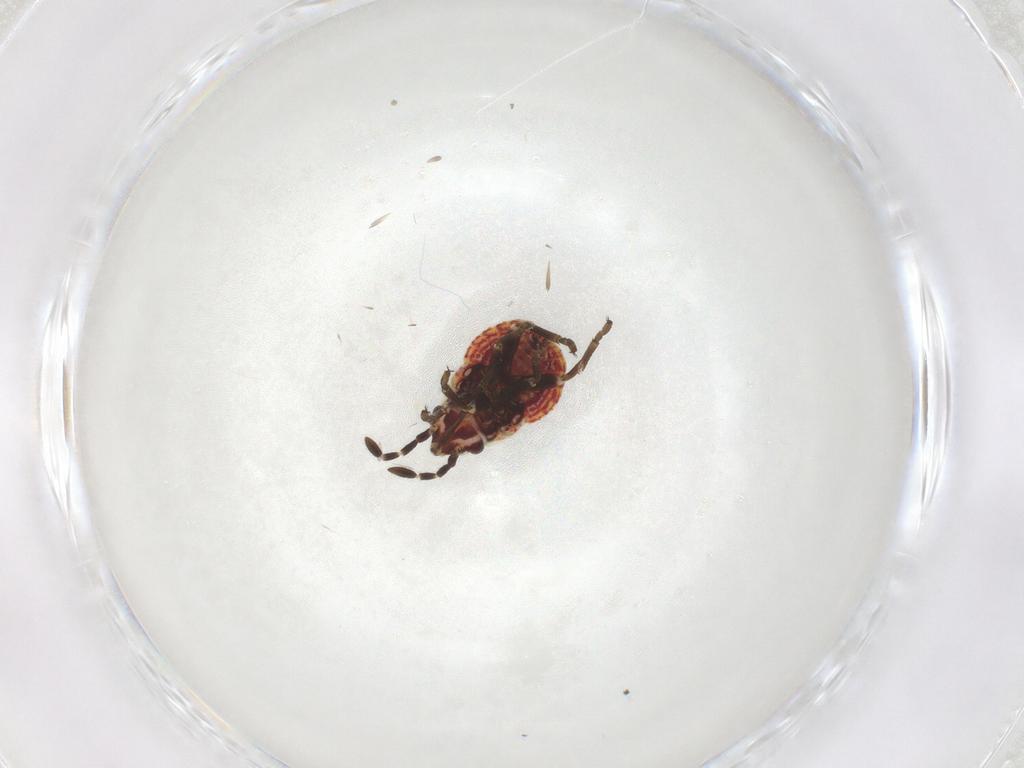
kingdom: Animalia
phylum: Arthropoda
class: Insecta
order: Hemiptera
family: Lygaeidae
